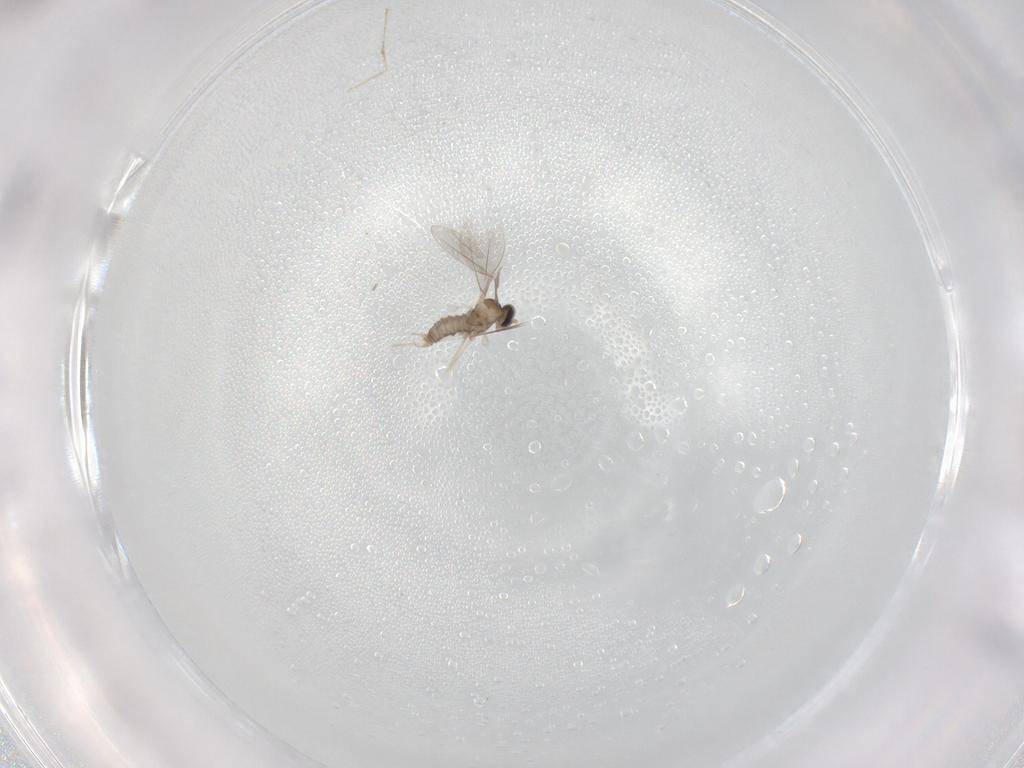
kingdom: Animalia
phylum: Arthropoda
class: Insecta
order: Diptera
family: Cecidomyiidae
